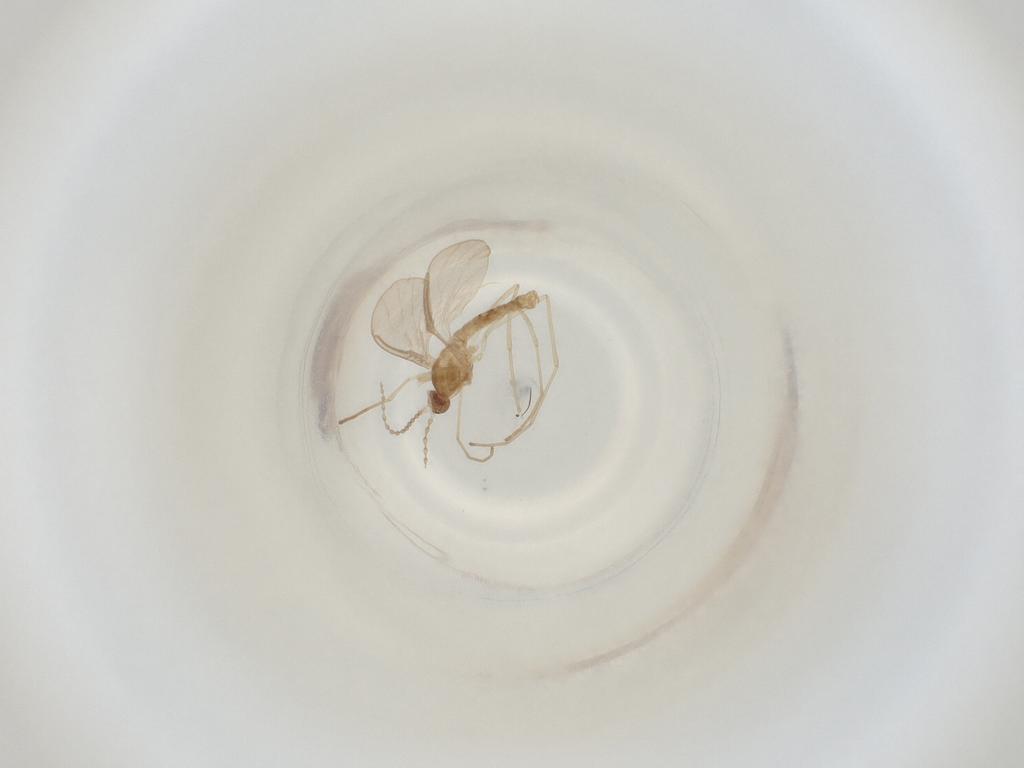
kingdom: Animalia
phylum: Arthropoda
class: Insecta
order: Diptera
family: Cecidomyiidae
